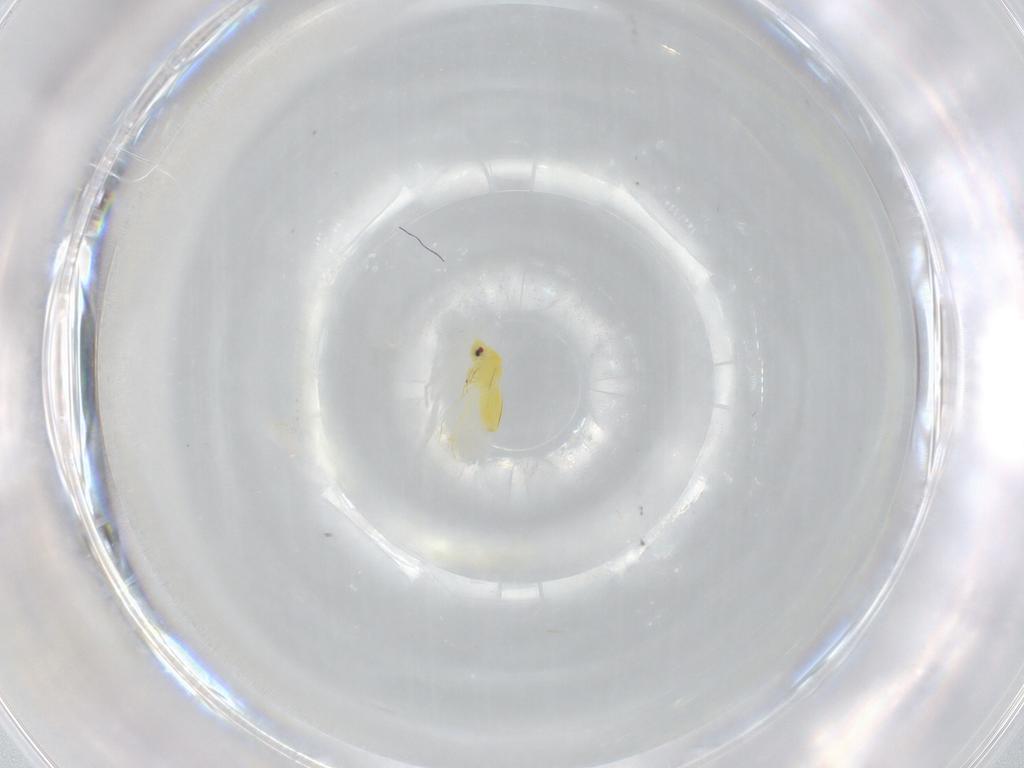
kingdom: Animalia
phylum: Arthropoda
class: Insecta
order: Hemiptera
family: Aleyrodidae
